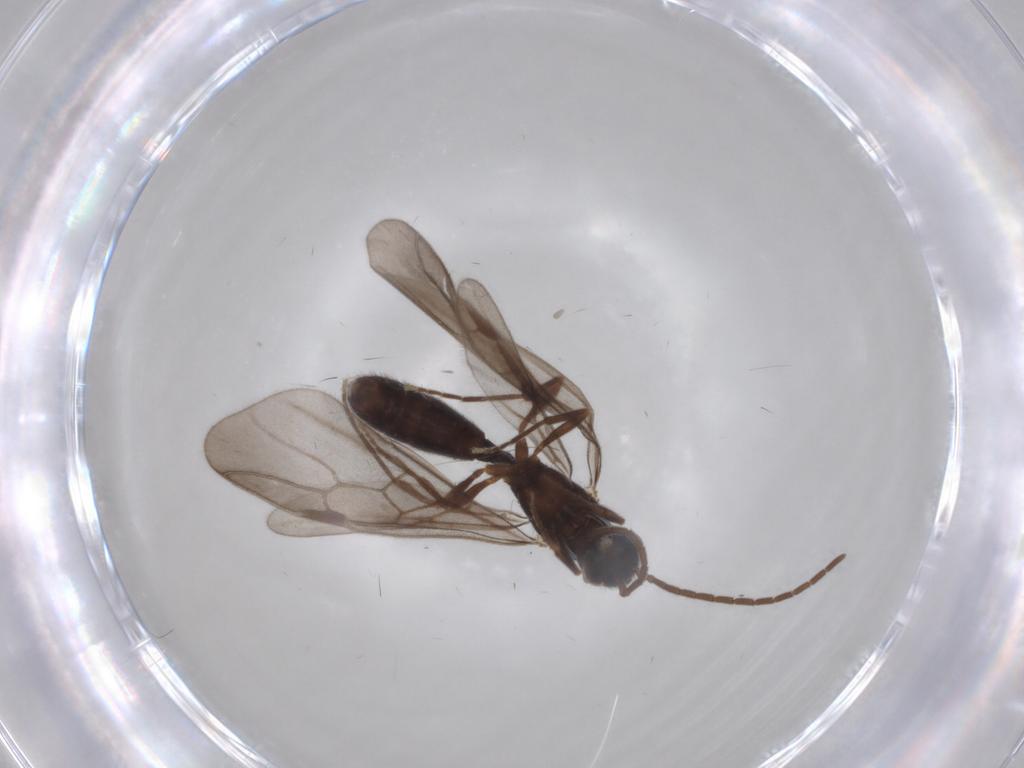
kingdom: Animalia
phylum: Arthropoda
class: Insecta
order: Hymenoptera
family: Formicidae
